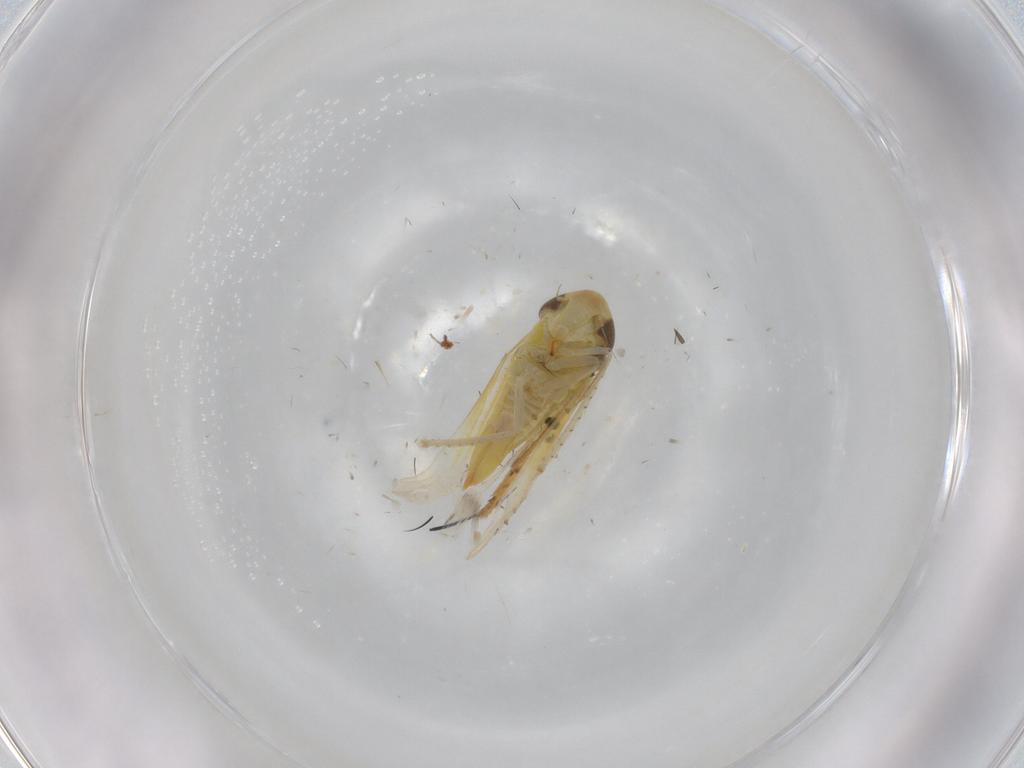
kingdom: Animalia
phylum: Arthropoda
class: Insecta
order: Hemiptera
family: Cicadellidae
